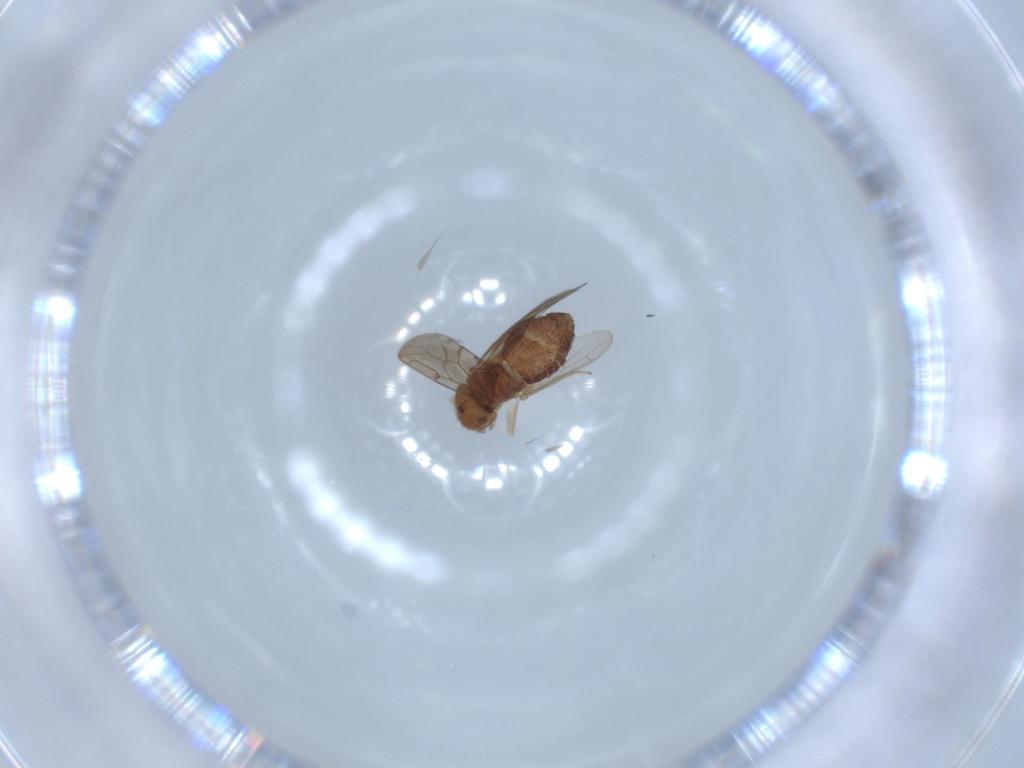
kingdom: Animalia
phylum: Arthropoda
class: Insecta
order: Psocodea
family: Ectopsocidae
